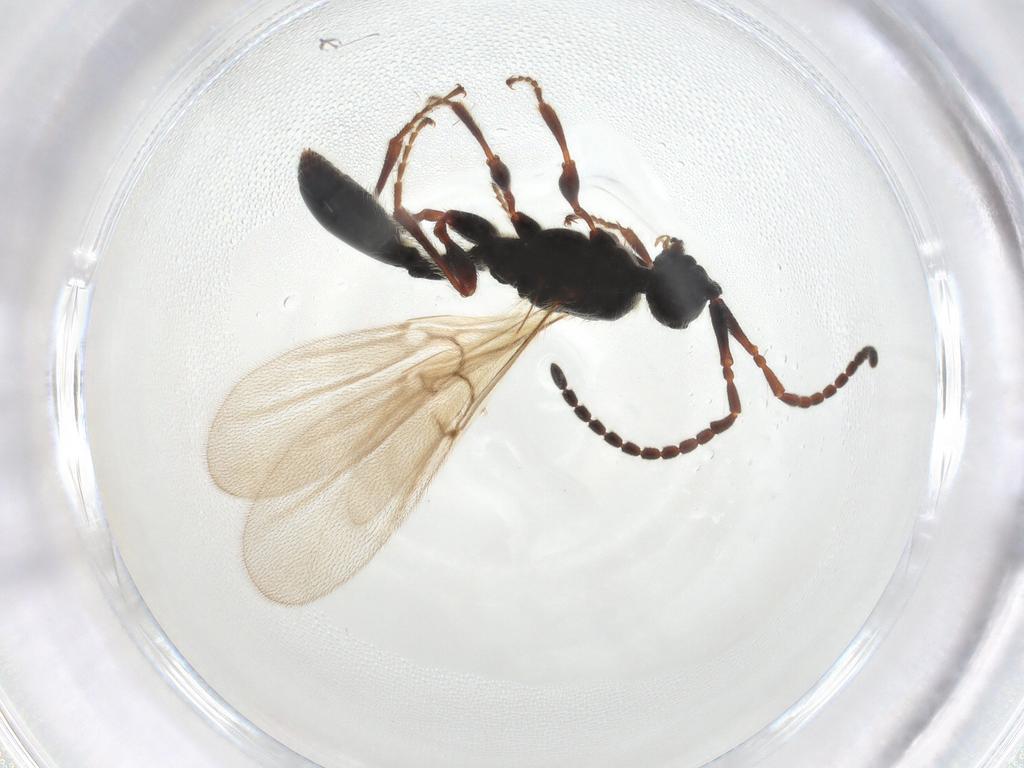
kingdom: Animalia
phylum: Arthropoda
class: Insecta
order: Hymenoptera
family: Diapriidae
